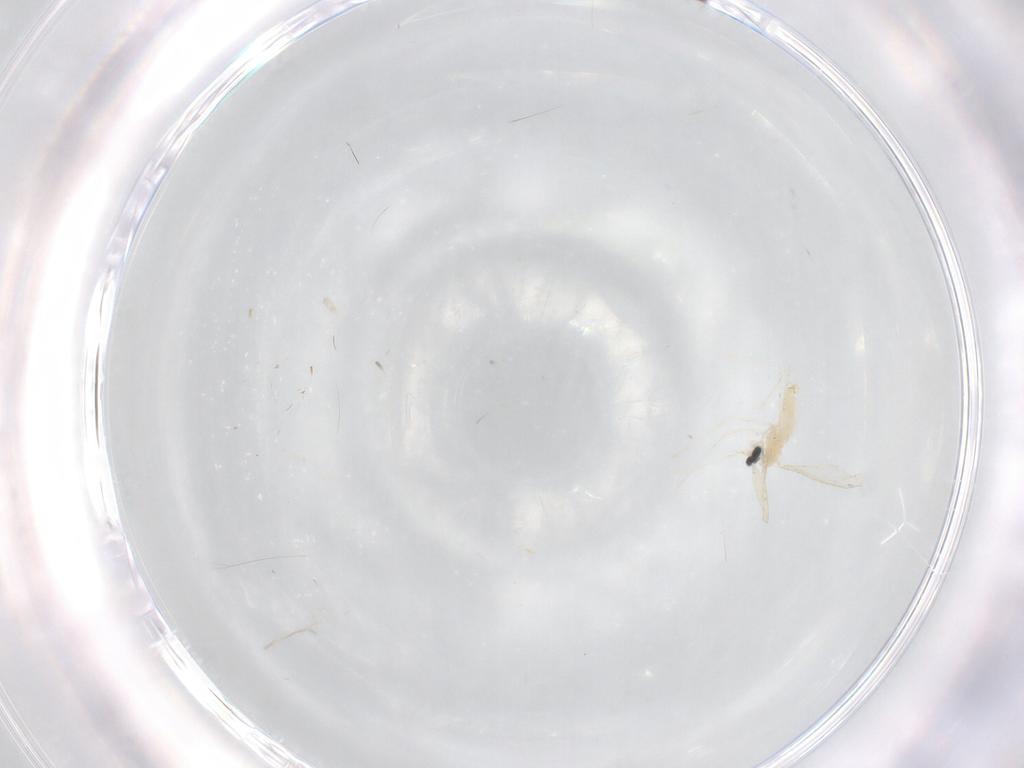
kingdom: Animalia
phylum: Arthropoda
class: Insecta
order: Diptera
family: Cecidomyiidae
